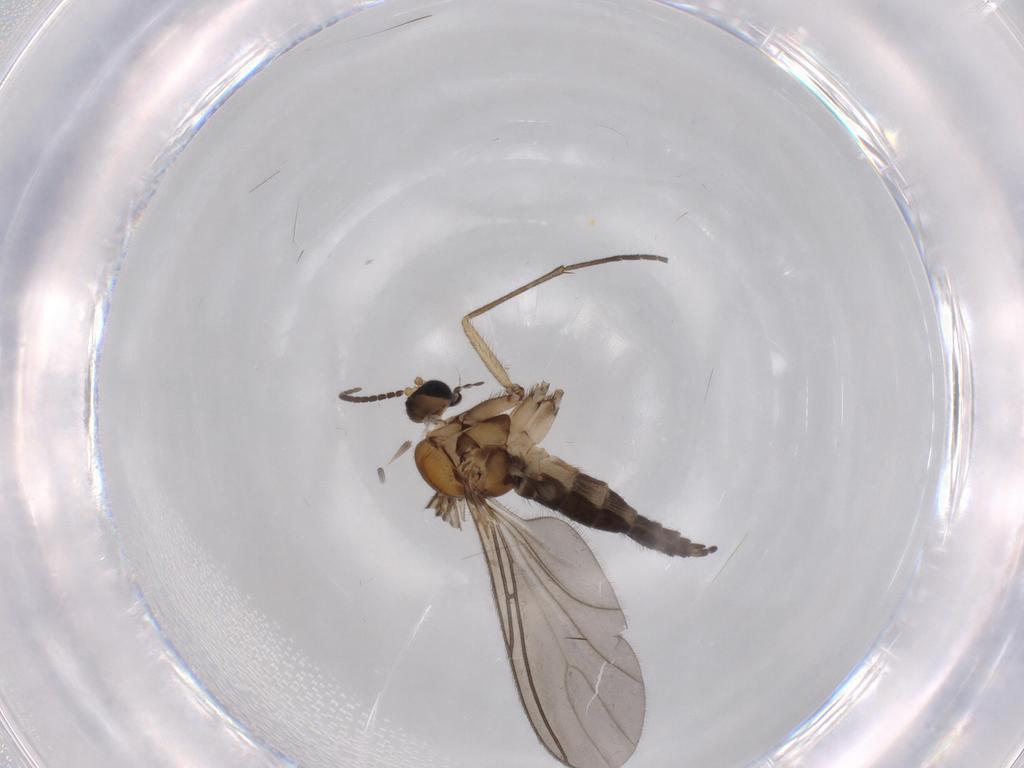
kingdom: Animalia
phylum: Arthropoda
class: Insecta
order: Diptera
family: Sciaridae
